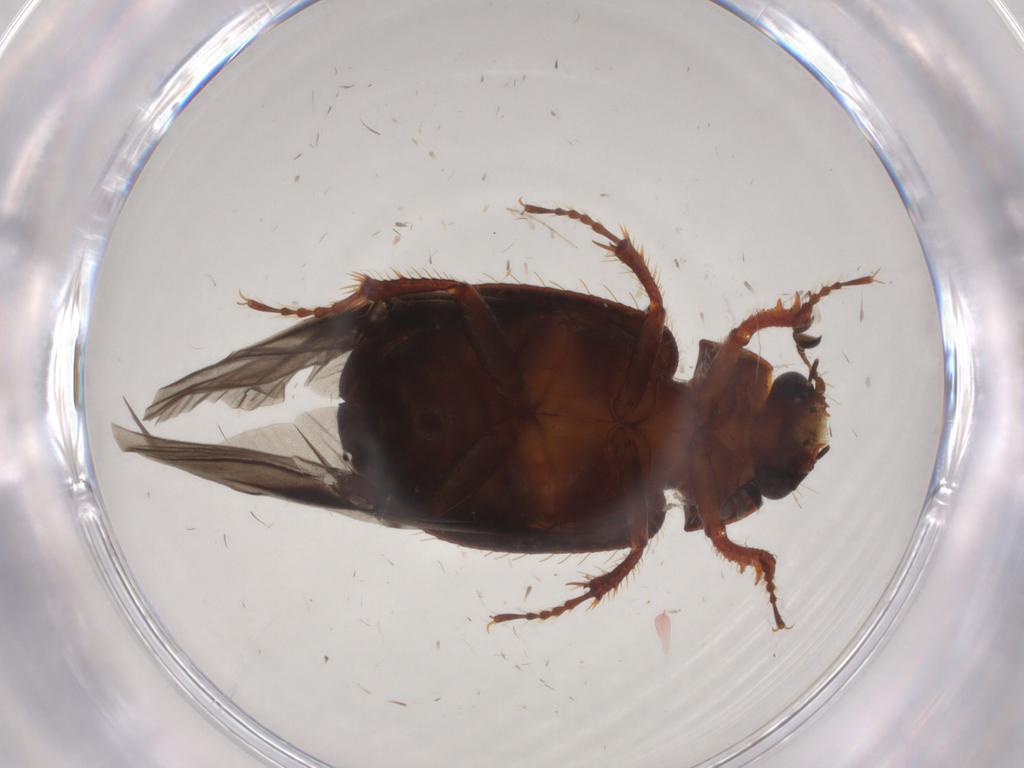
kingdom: Animalia
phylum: Arthropoda
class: Insecta
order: Coleoptera
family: Hybosoridae
